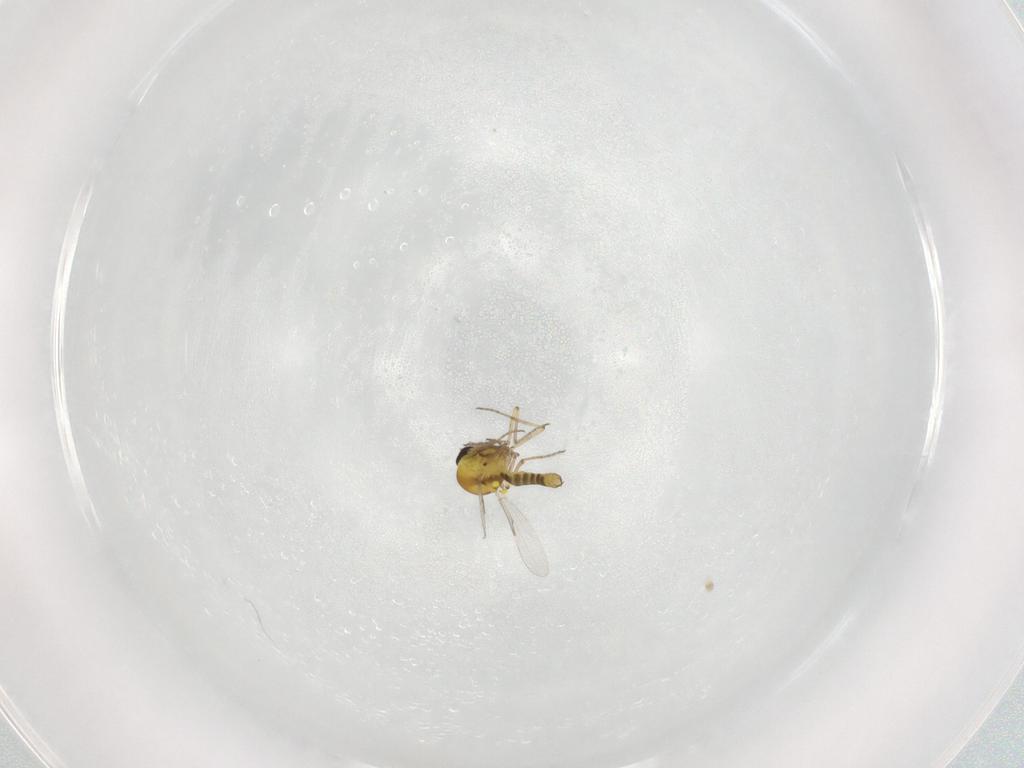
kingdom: Animalia
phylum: Arthropoda
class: Insecta
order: Diptera
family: Ceratopogonidae
